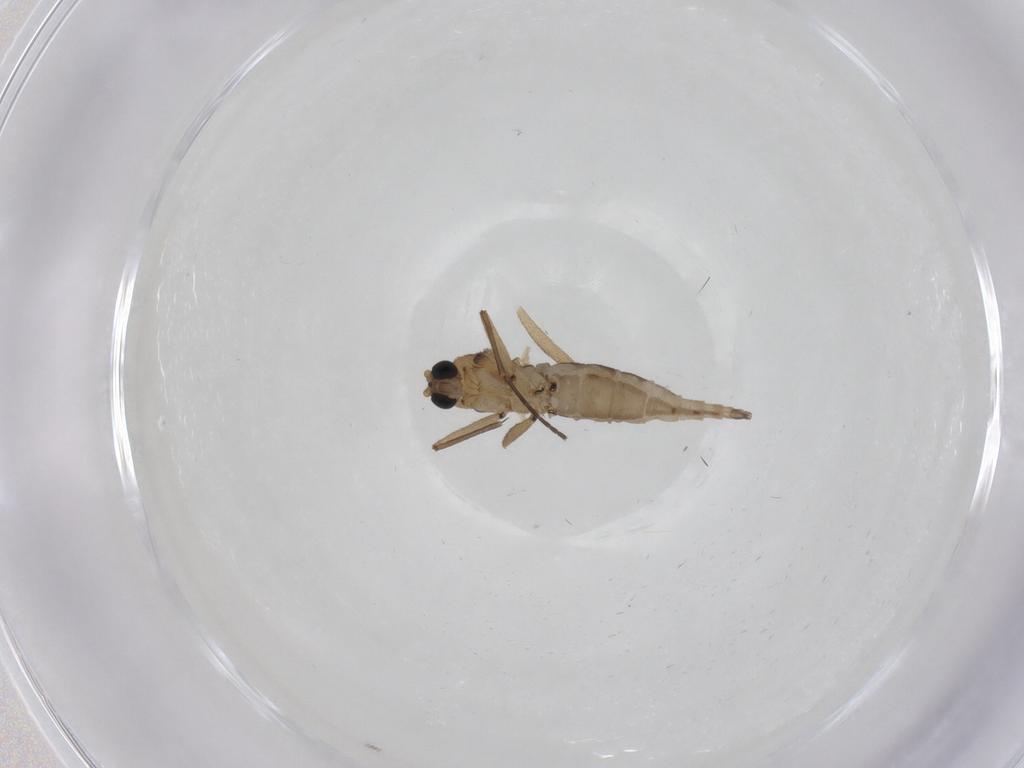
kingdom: Animalia
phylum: Arthropoda
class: Insecta
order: Diptera
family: Sciaridae
